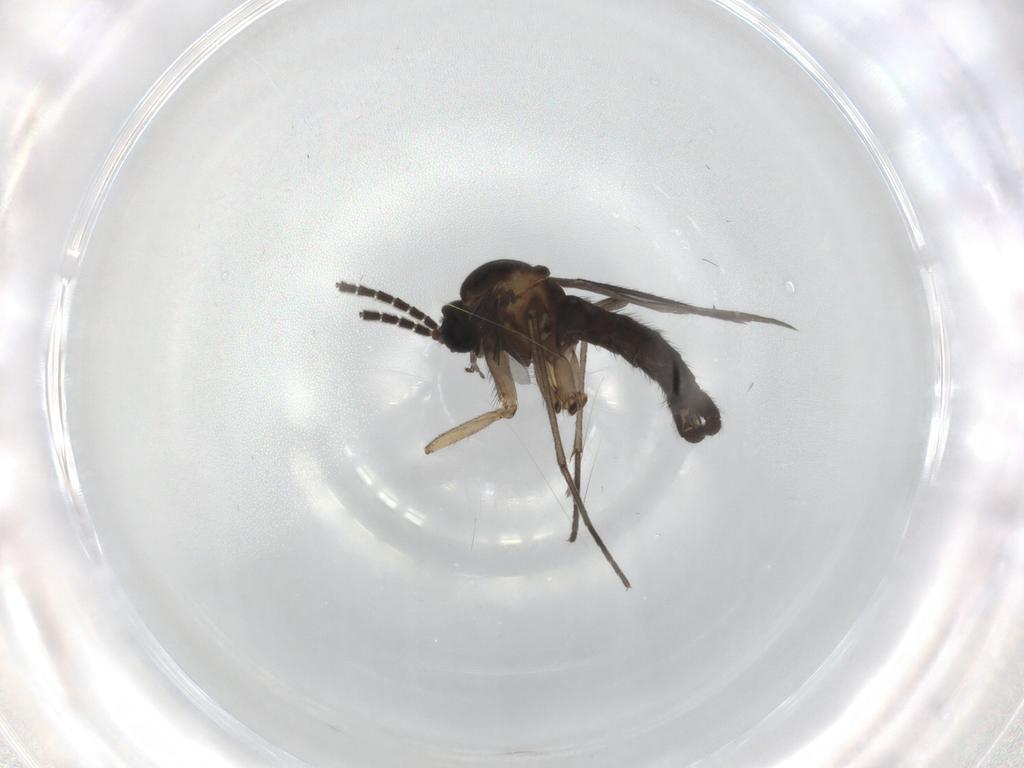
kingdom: Animalia
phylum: Arthropoda
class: Insecta
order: Diptera
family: Sciaridae
